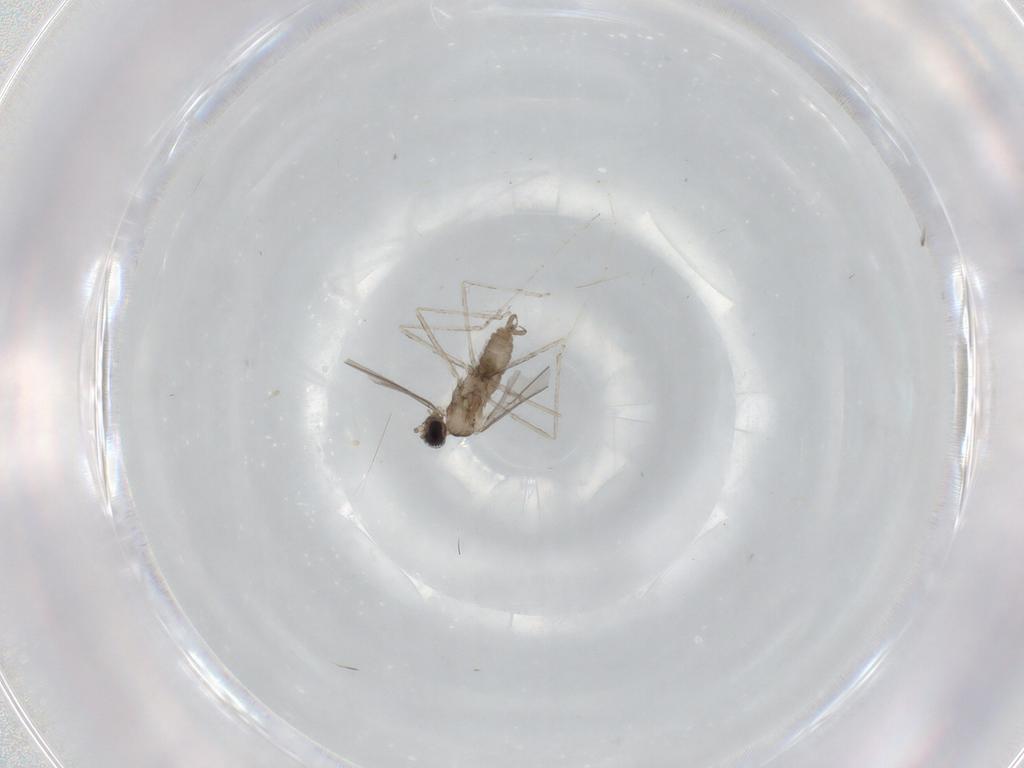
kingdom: Animalia
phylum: Arthropoda
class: Insecta
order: Diptera
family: Cecidomyiidae
